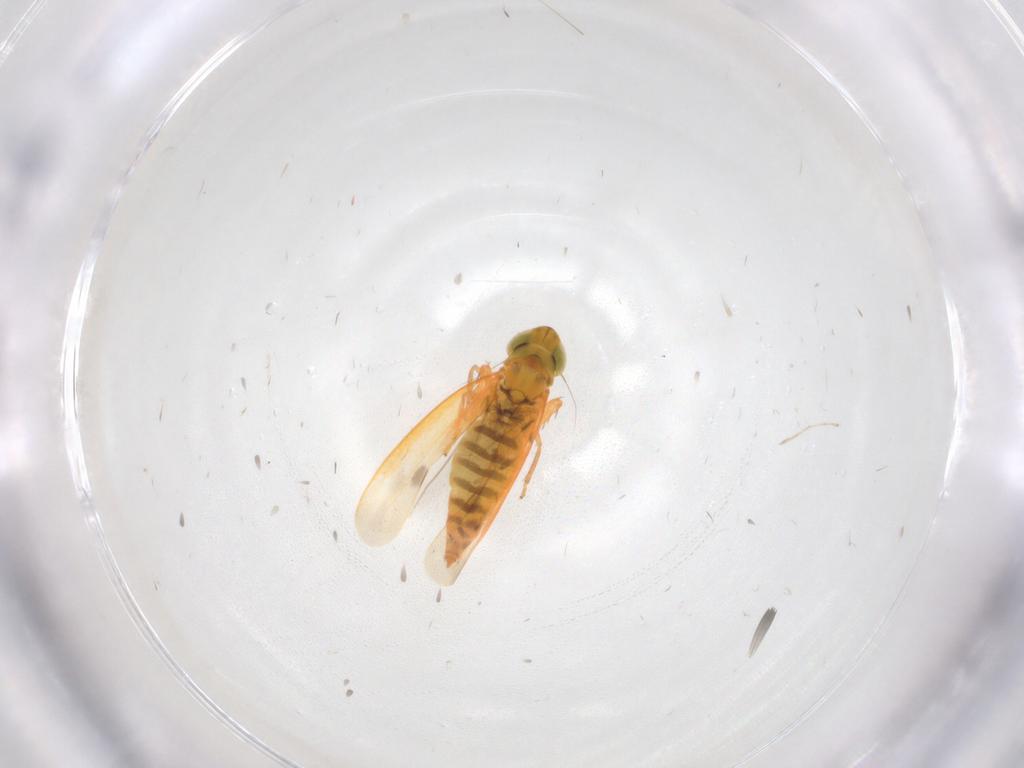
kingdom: Animalia
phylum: Arthropoda
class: Insecta
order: Hemiptera
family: Cicadellidae
